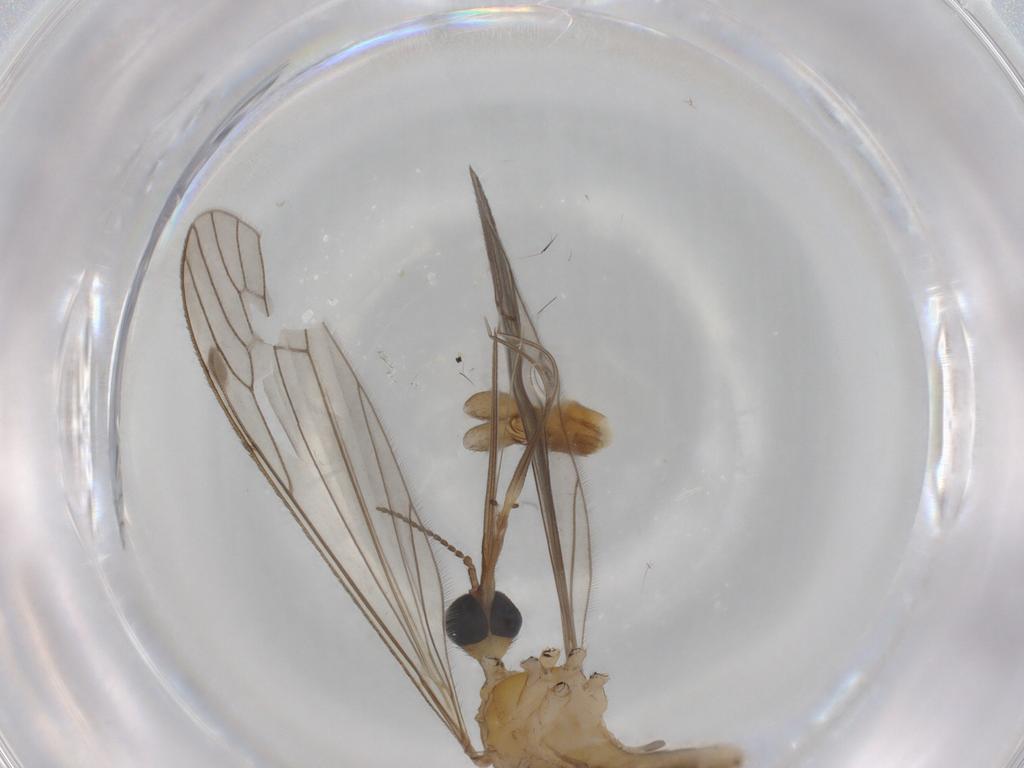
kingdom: Animalia
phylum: Arthropoda
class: Insecta
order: Diptera
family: Limoniidae
